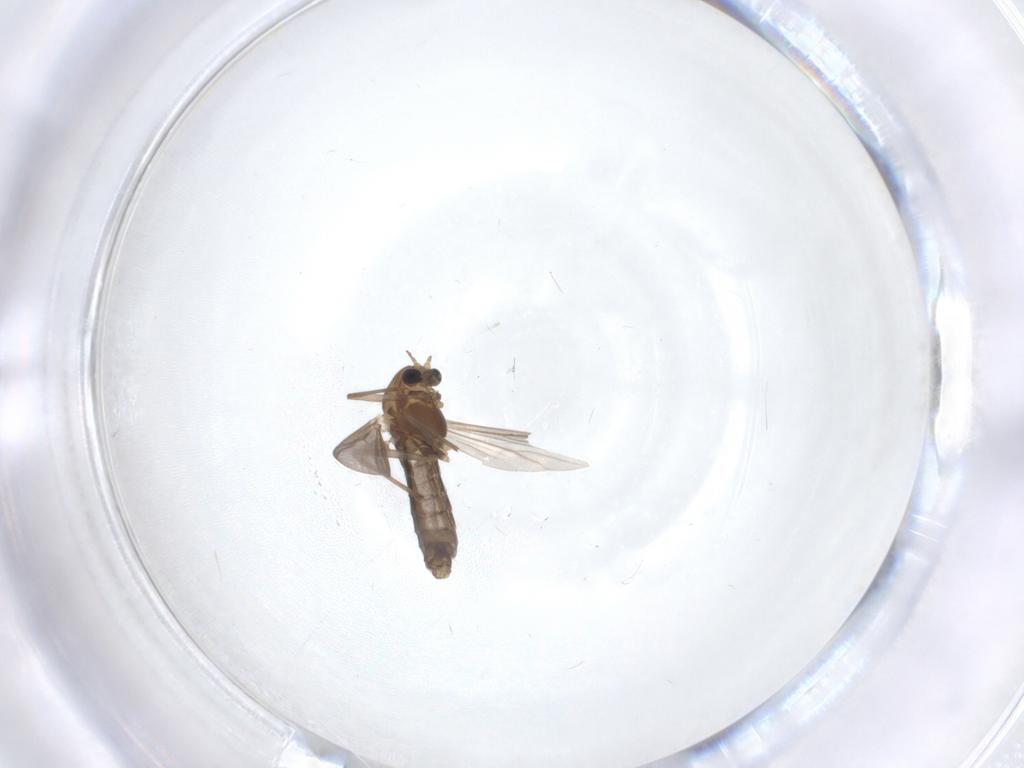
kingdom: Animalia
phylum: Arthropoda
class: Insecta
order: Diptera
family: Chironomidae
